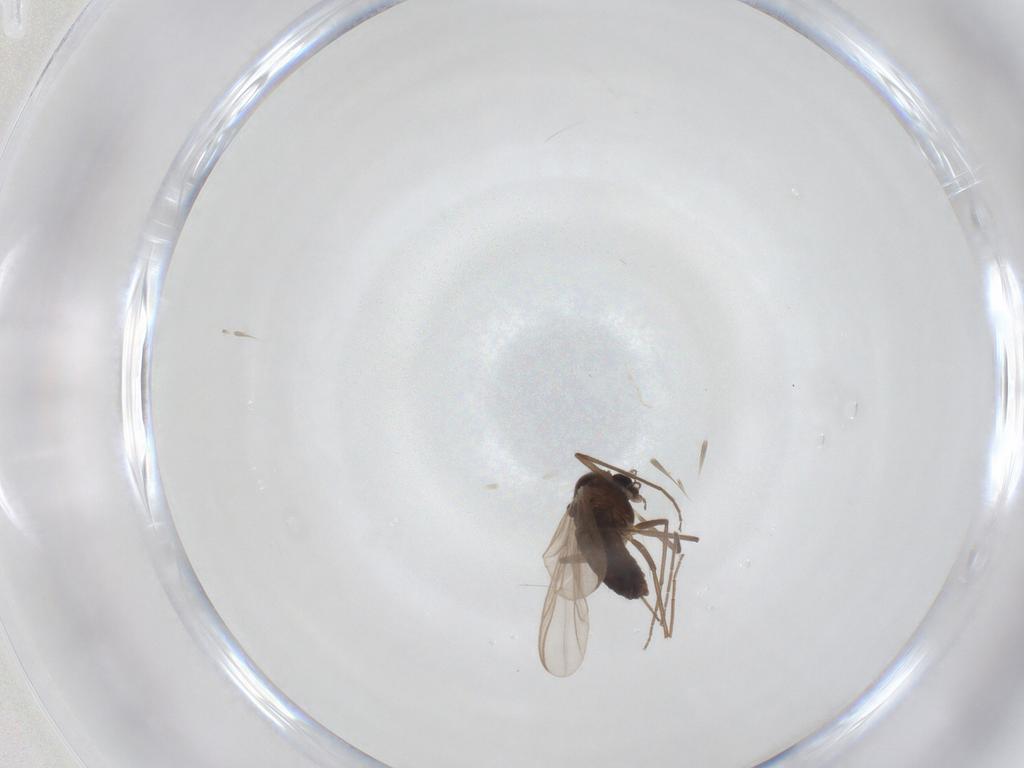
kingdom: Animalia
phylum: Arthropoda
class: Insecta
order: Diptera
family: Chironomidae
